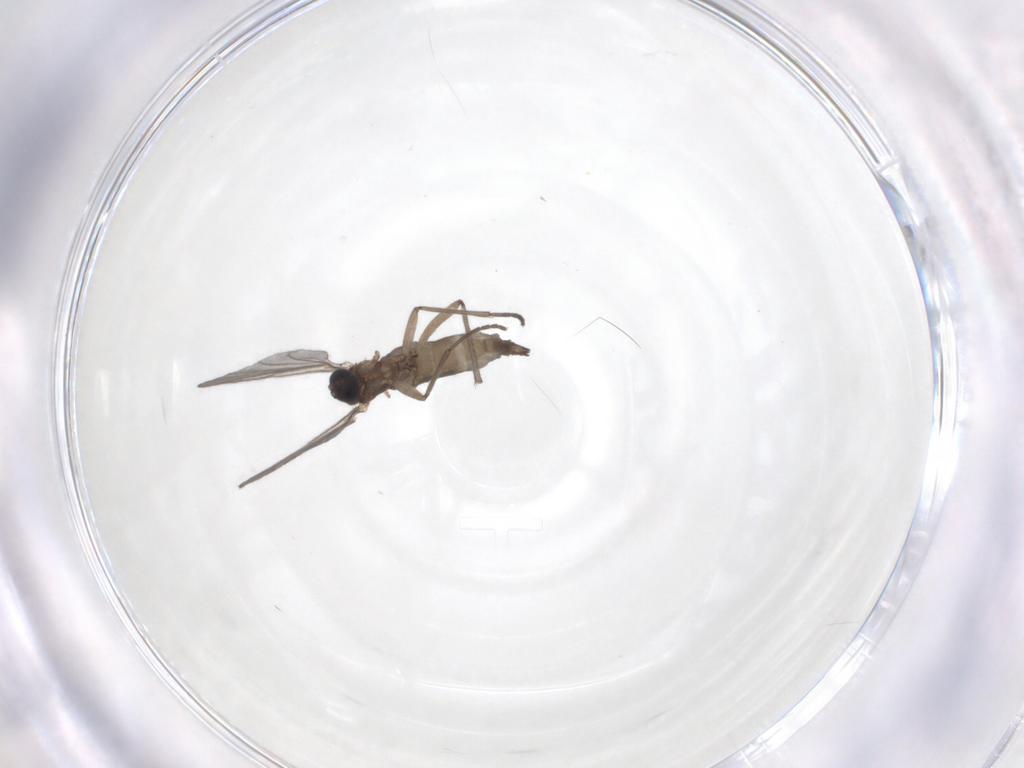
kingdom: Animalia
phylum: Arthropoda
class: Insecta
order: Diptera
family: Sciaridae
